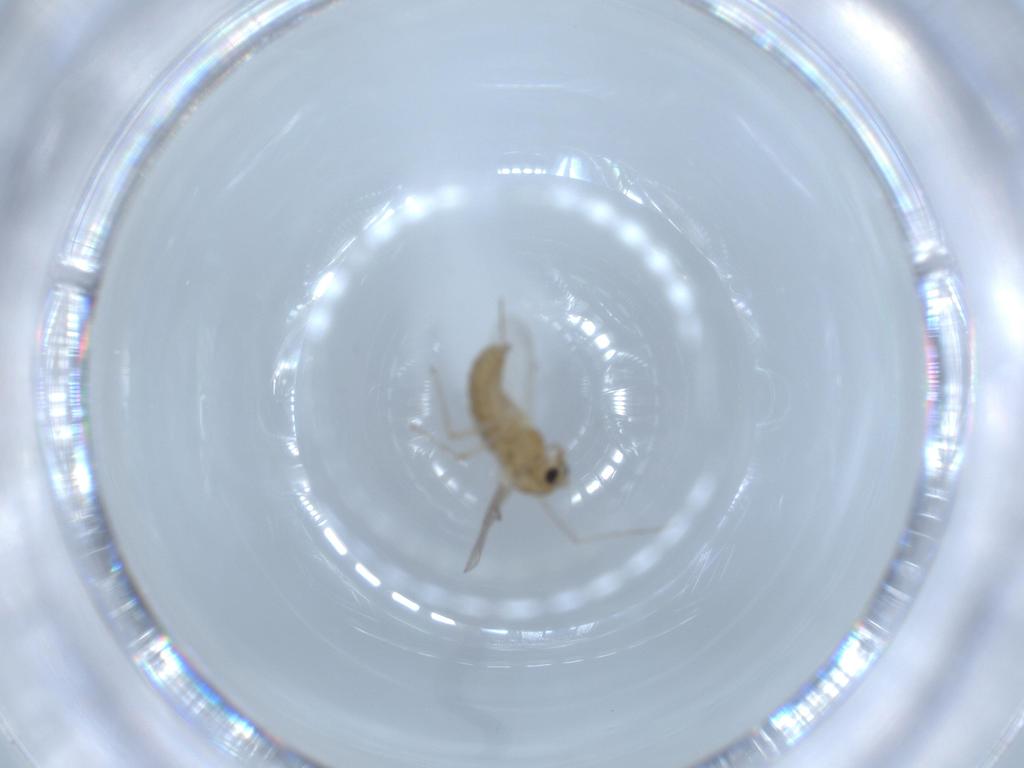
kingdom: Animalia
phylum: Arthropoda
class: Insecta
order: Diptera
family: Chironomidae
